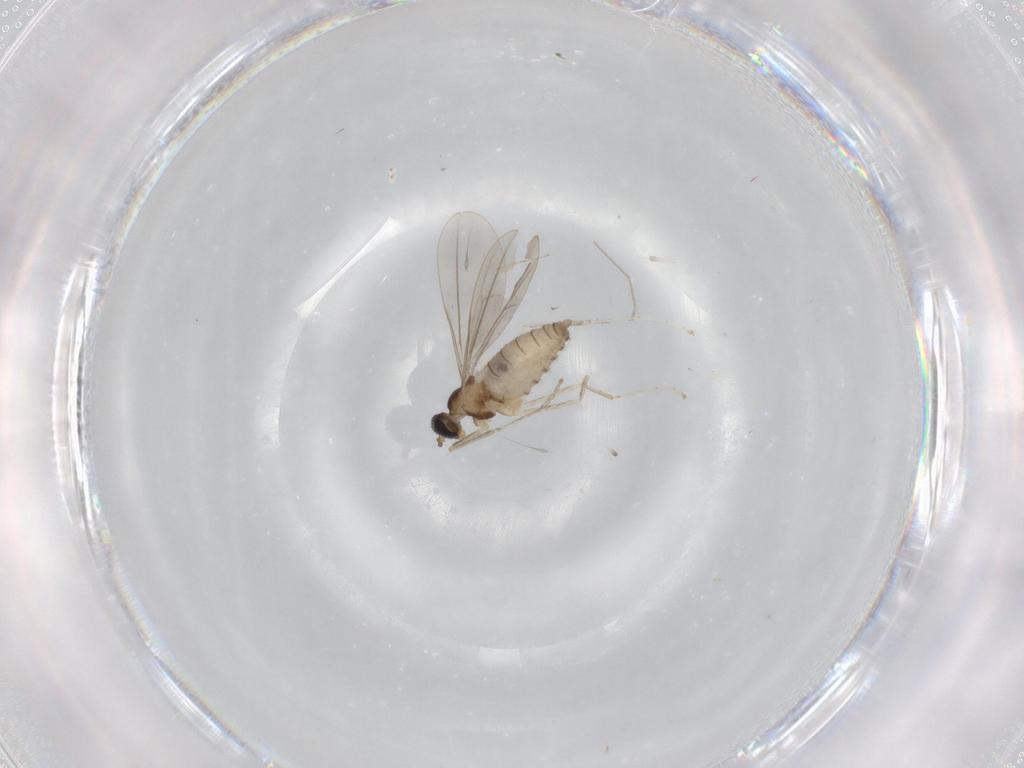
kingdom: Animalia
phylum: Arthropoda
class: Insecta
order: Diptera
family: Cecidomyiidae
